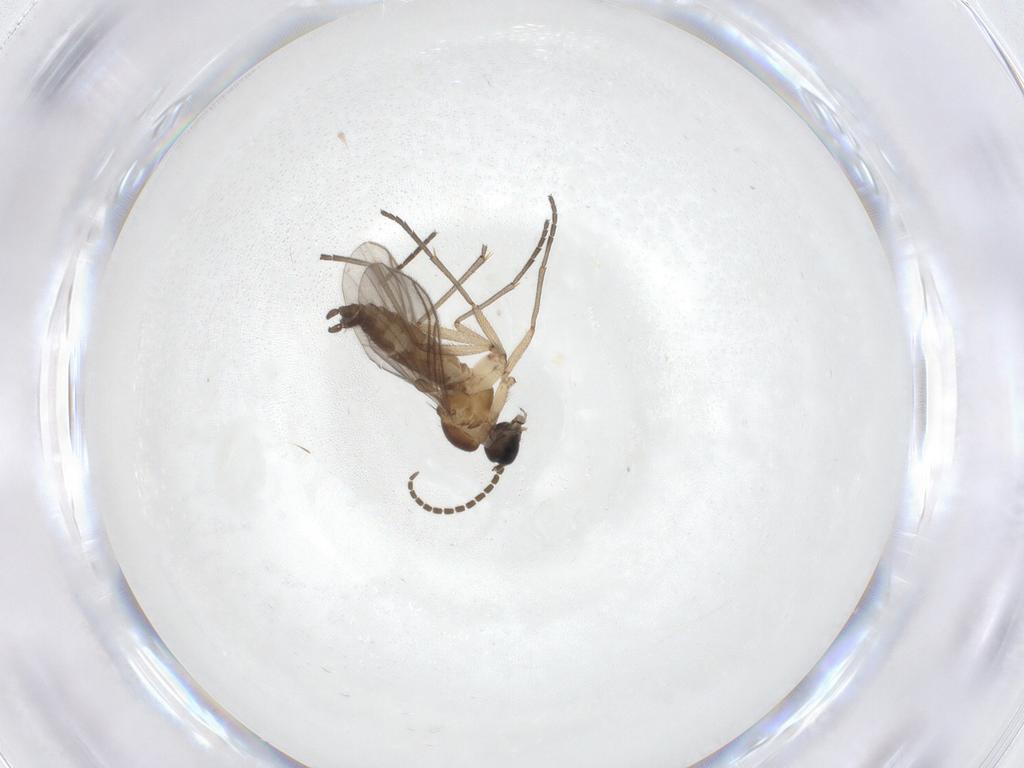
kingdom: Animalia
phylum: Arthropoda
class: Insecta
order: Diptera
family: Sciaridae
